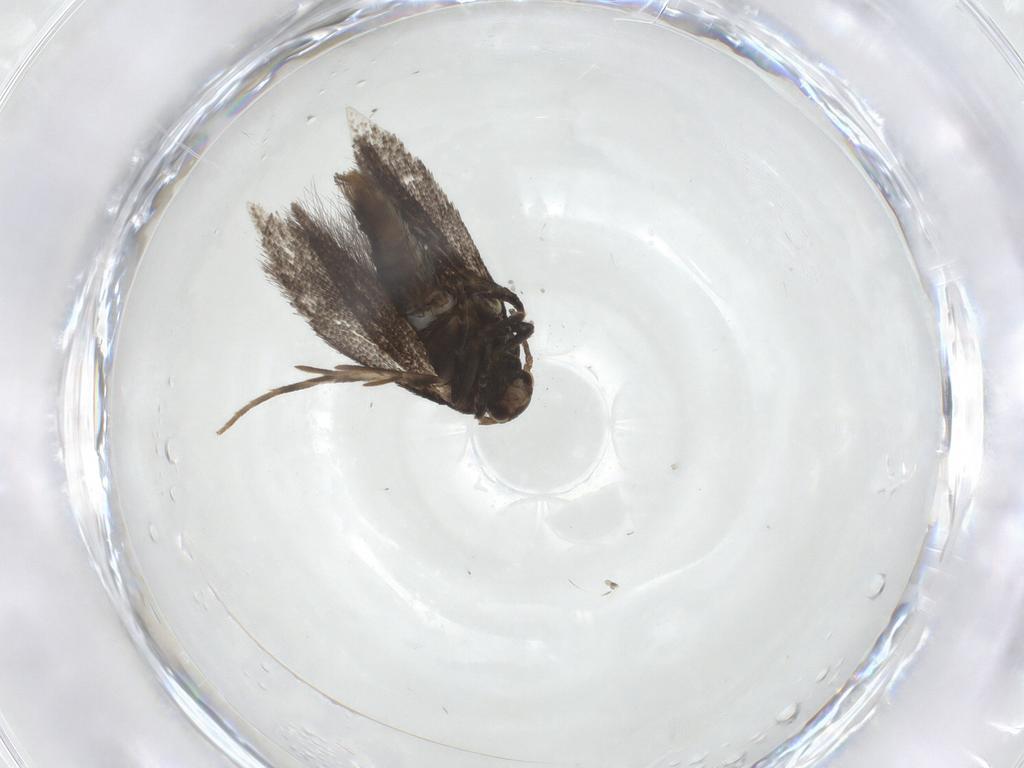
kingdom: Animalia
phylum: Arthropoda
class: Insecta
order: Lepidoptera
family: Elachistidae
